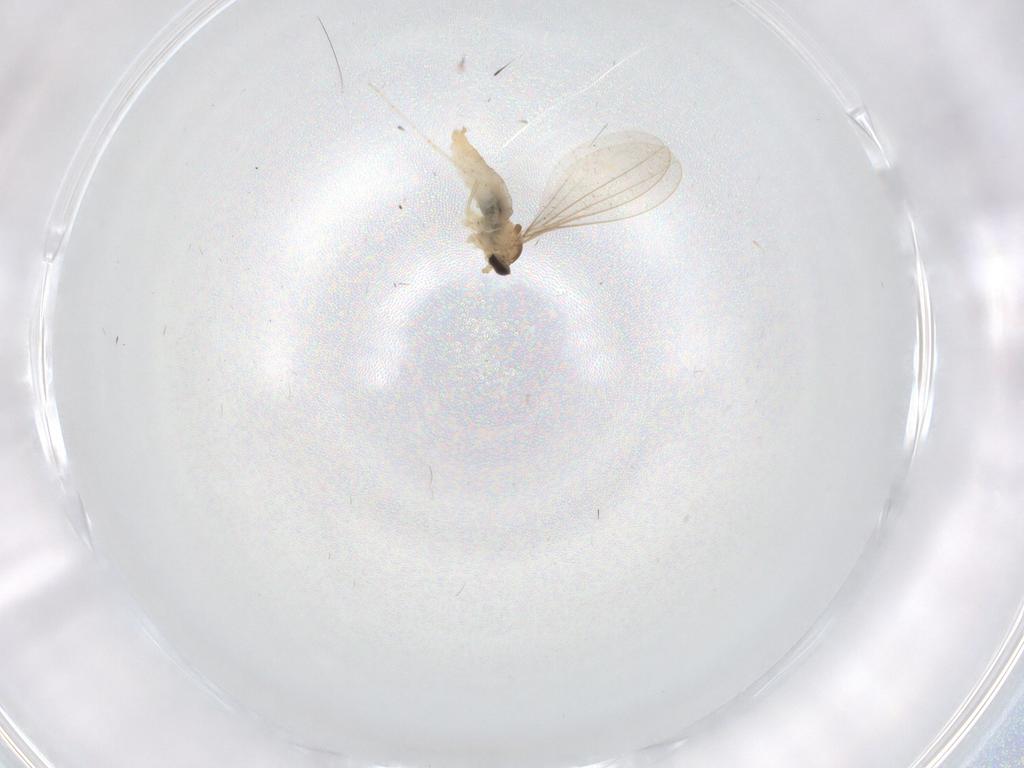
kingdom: Animalia
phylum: Arthropoda
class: Insecta
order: Diptera
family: Cecidomyiidae
